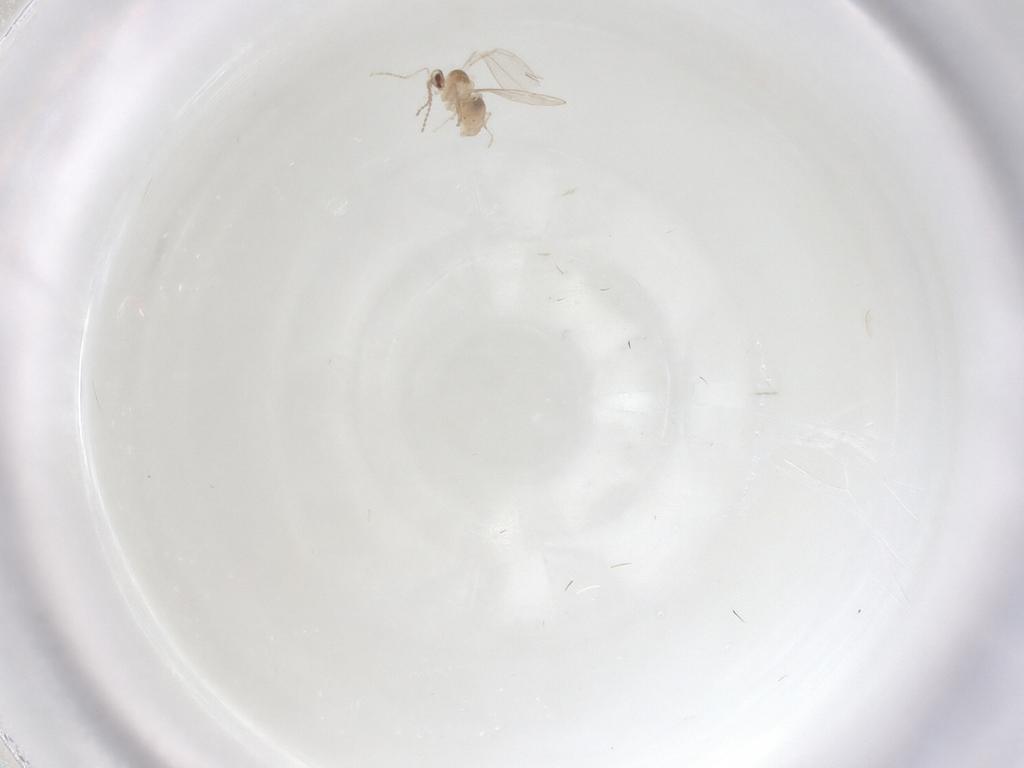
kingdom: Animalia
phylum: Arthropoda
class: Insecta
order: Diptera
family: Cecidomyiidae
